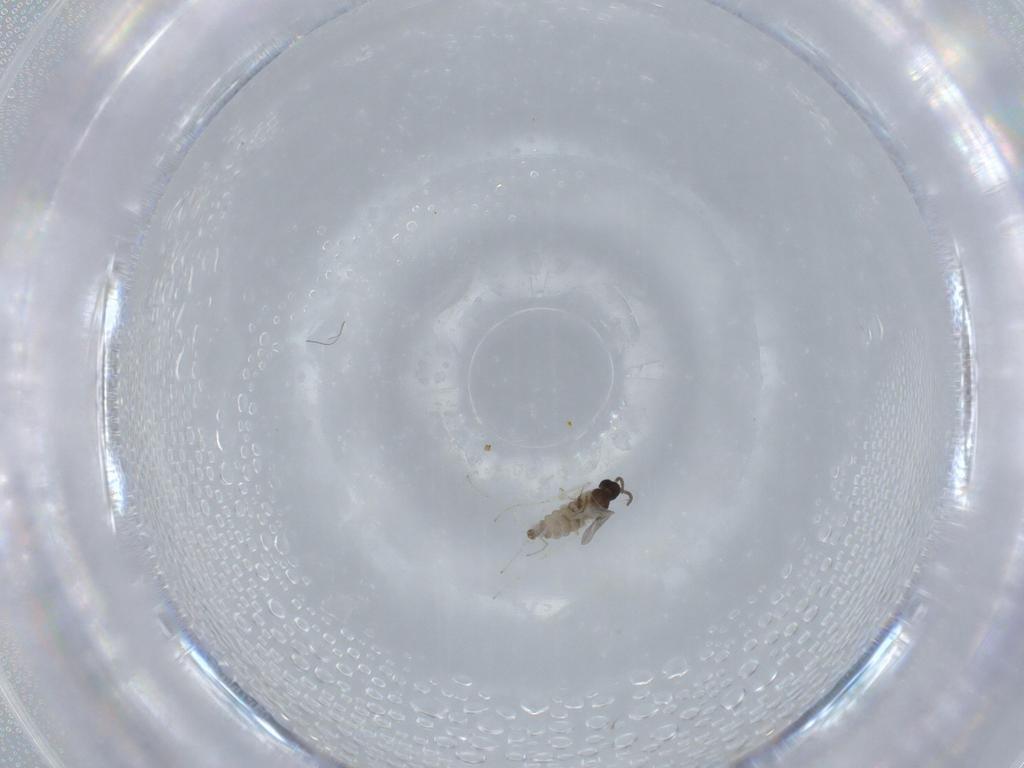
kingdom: Animalia
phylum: Arthropoda
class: Insecta
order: Diptera
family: Cecidomyiidae
